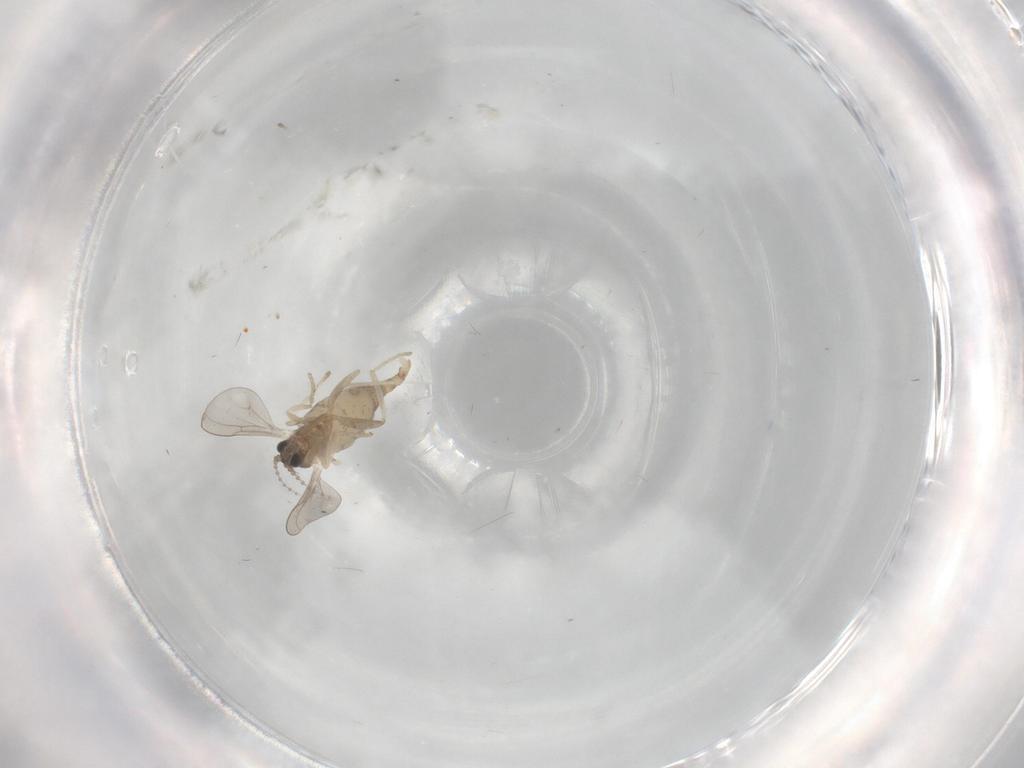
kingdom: Animalia
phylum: Arthropoda
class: Insecta
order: Diptera
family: Cecidomyiidae
